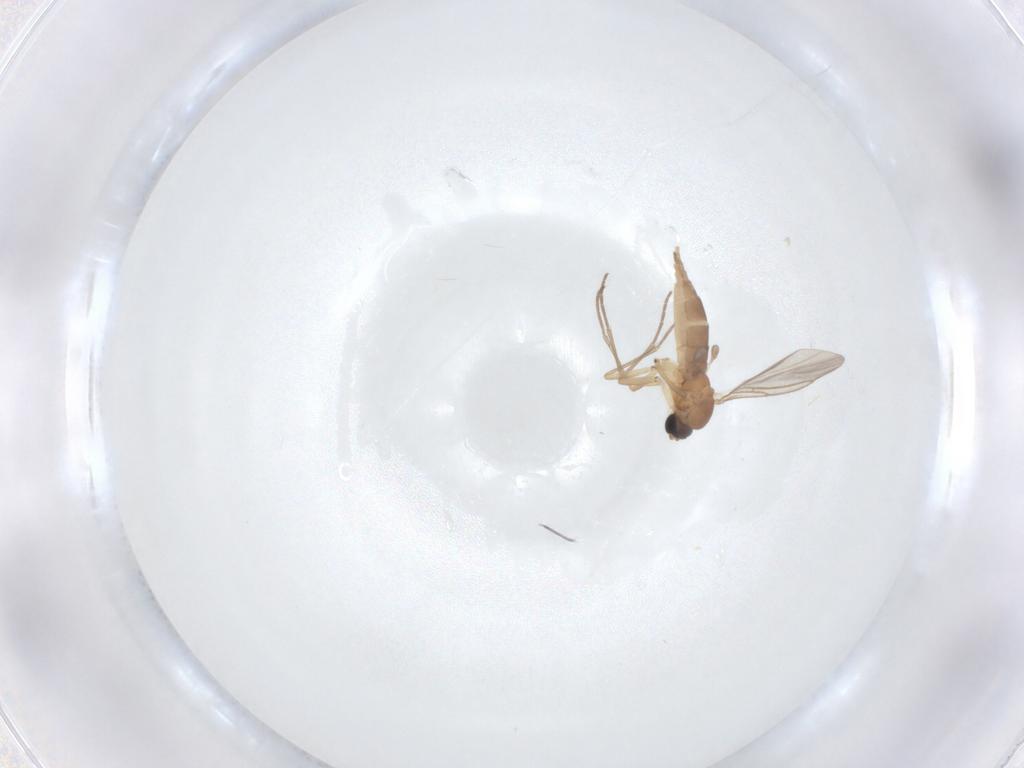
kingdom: Animalia
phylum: Arthropoda
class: Insecta
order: Diptera
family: Sciaridae
